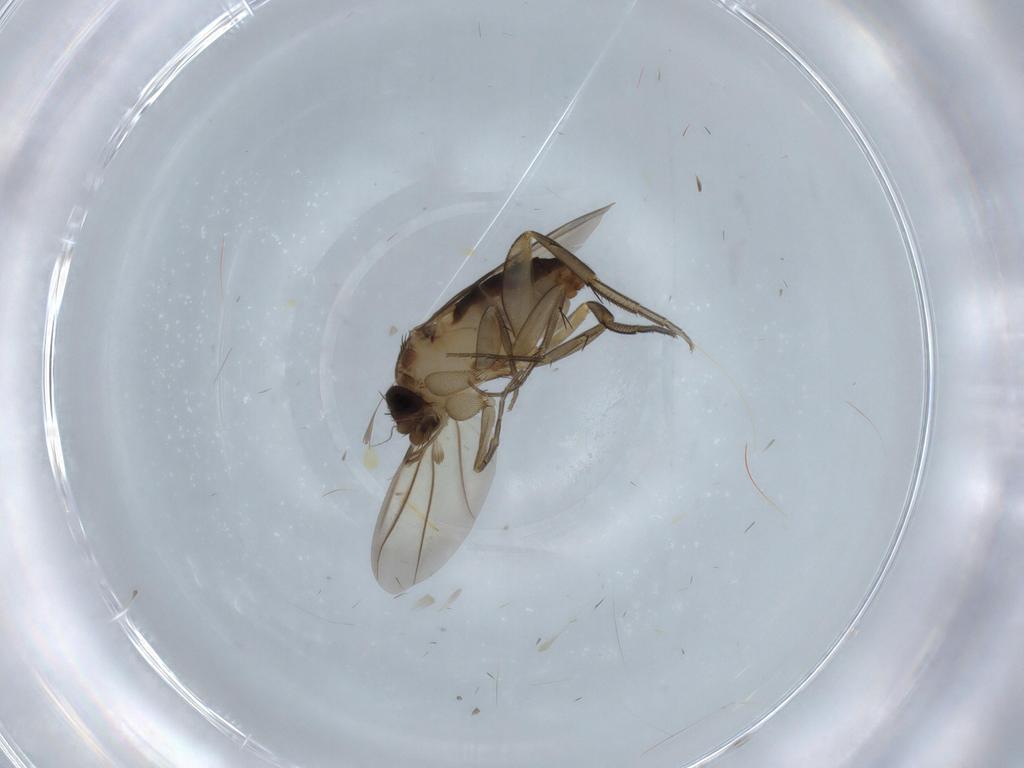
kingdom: Animalia
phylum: Arthropoda
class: Insecta
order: Diptera
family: Phoridae
